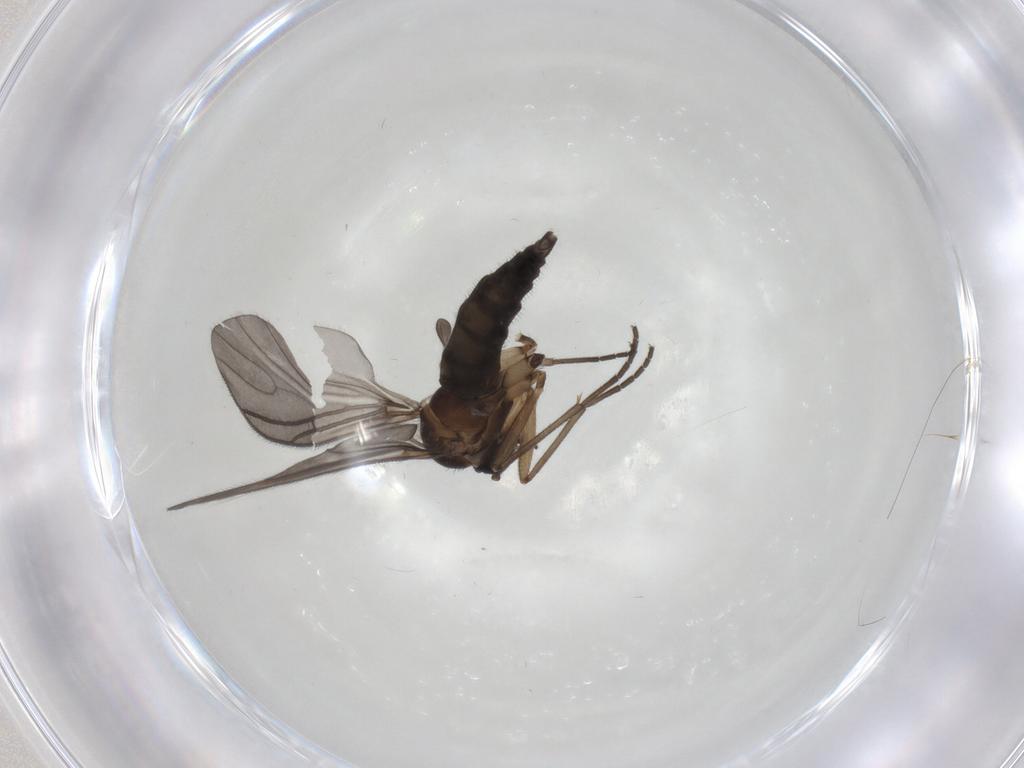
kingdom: Animalia
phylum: Arthropoda
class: Insecta
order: Diptera
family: Sciaridae
